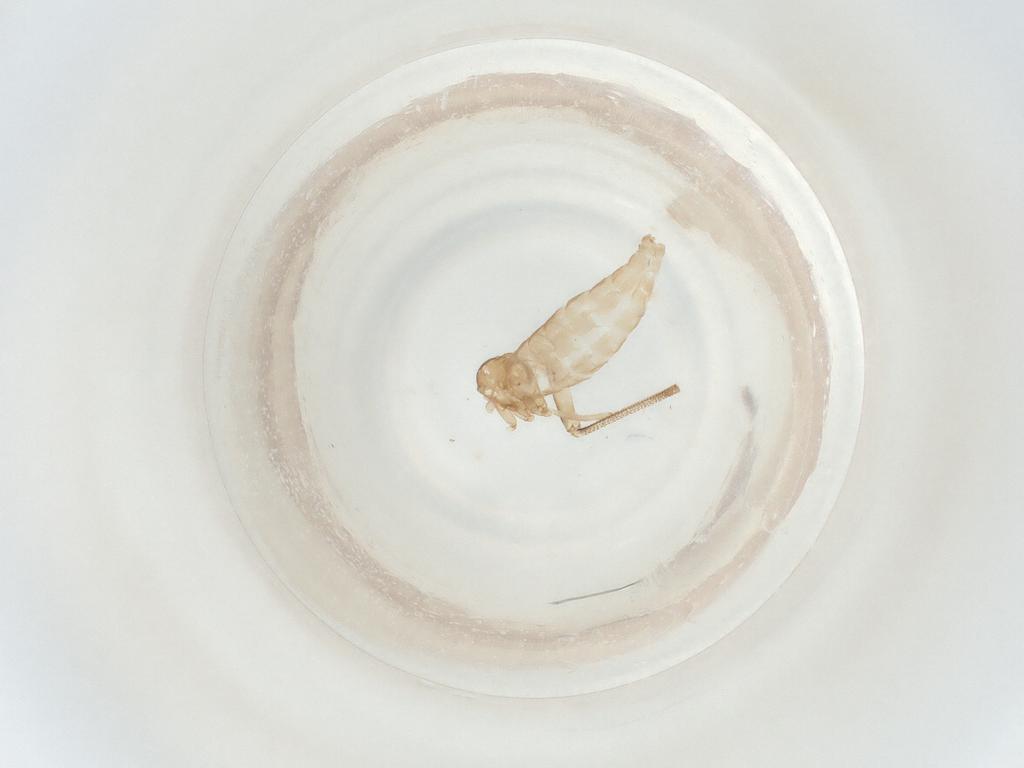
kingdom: Animalia
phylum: Arthropoda
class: Insecta
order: Diptera
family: Cecidomyiidae
